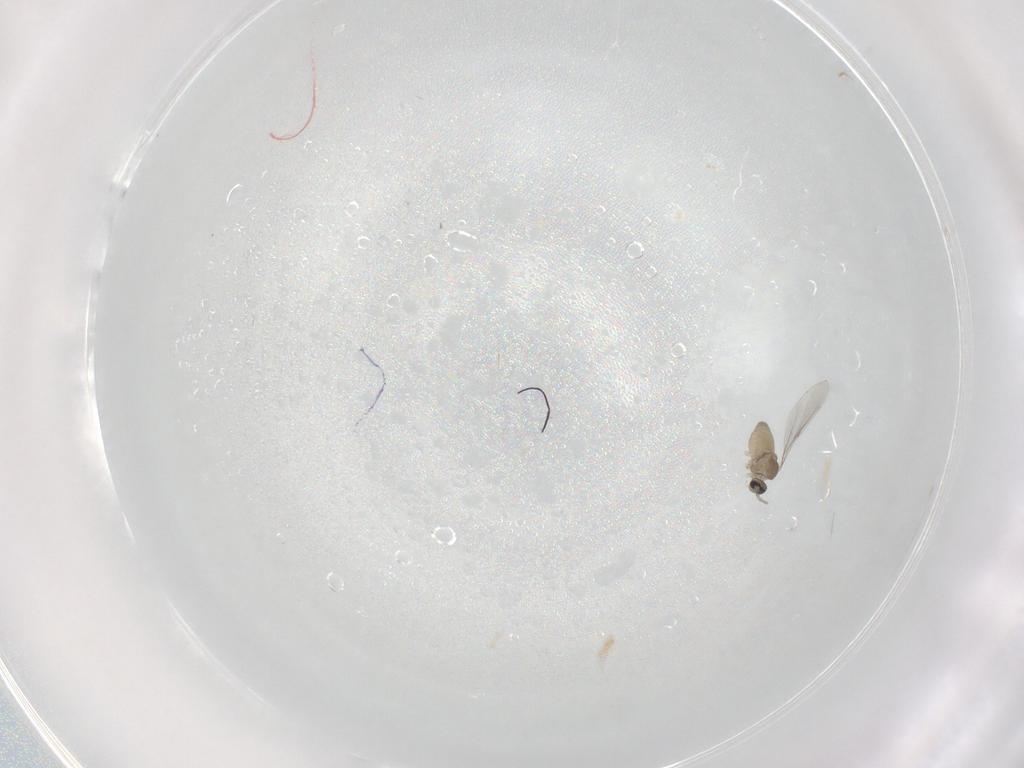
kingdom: Animalia
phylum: Arthropoda
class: Insecta
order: Diptera
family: Cecidomyiidae
